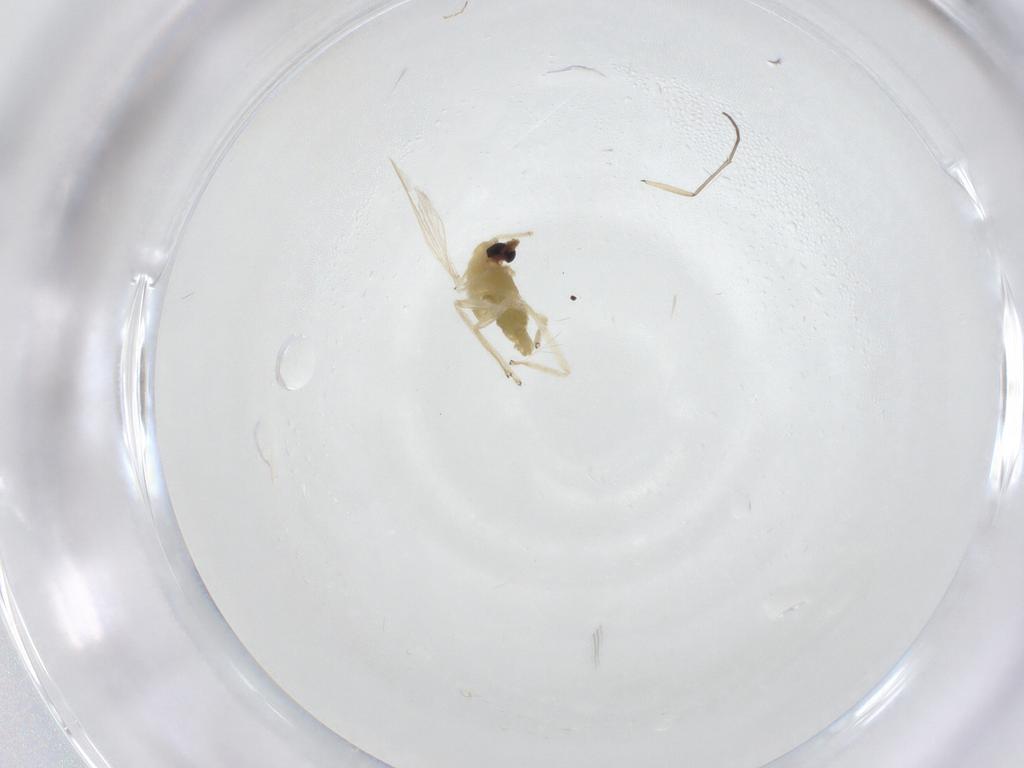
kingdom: Animalia
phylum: Arthropoda
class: Insecta
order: Diptera
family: Chironomidae
